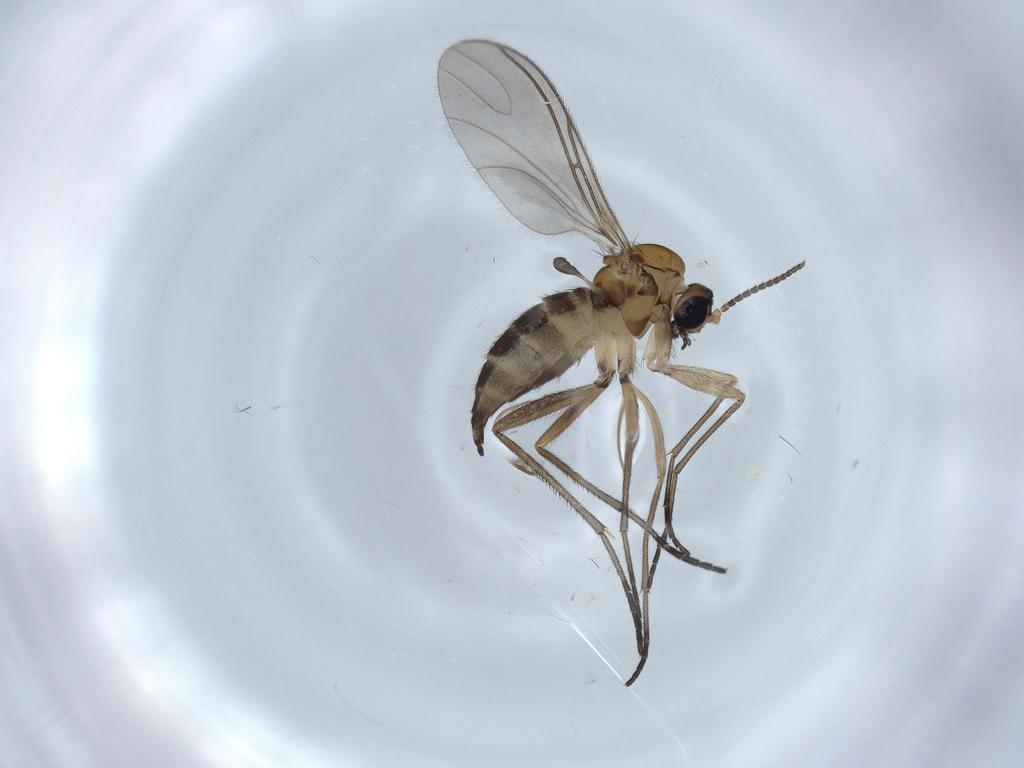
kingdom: Animalia
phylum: Arthropoda
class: Insecta
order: Diptera
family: Sciaridae
